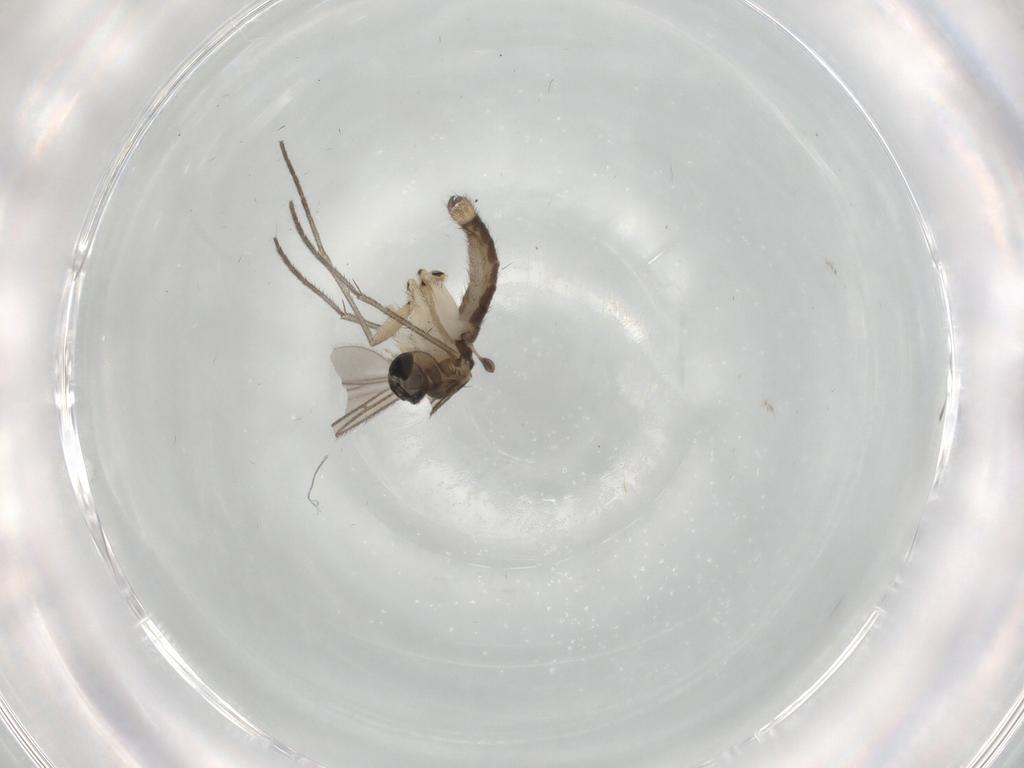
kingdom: Animalia
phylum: Arthropoda
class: Insecta
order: Diptera
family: Sciaridae
